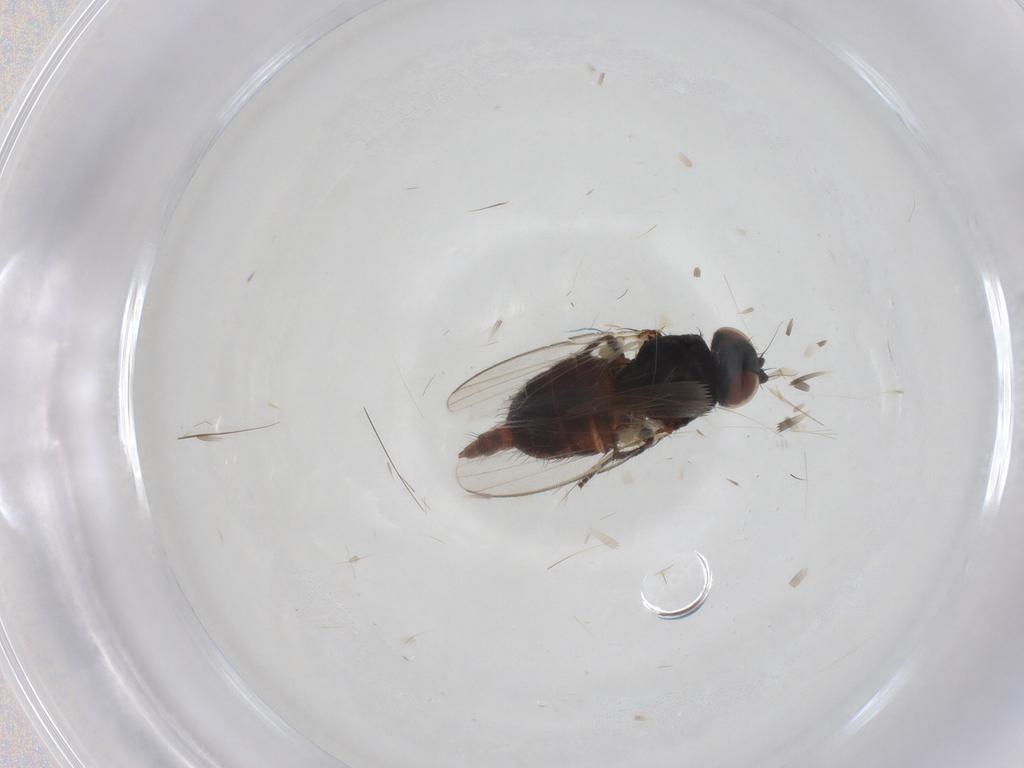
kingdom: Animalia
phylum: Arthropoda
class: Insecta
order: Diptera
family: Milichiidae
